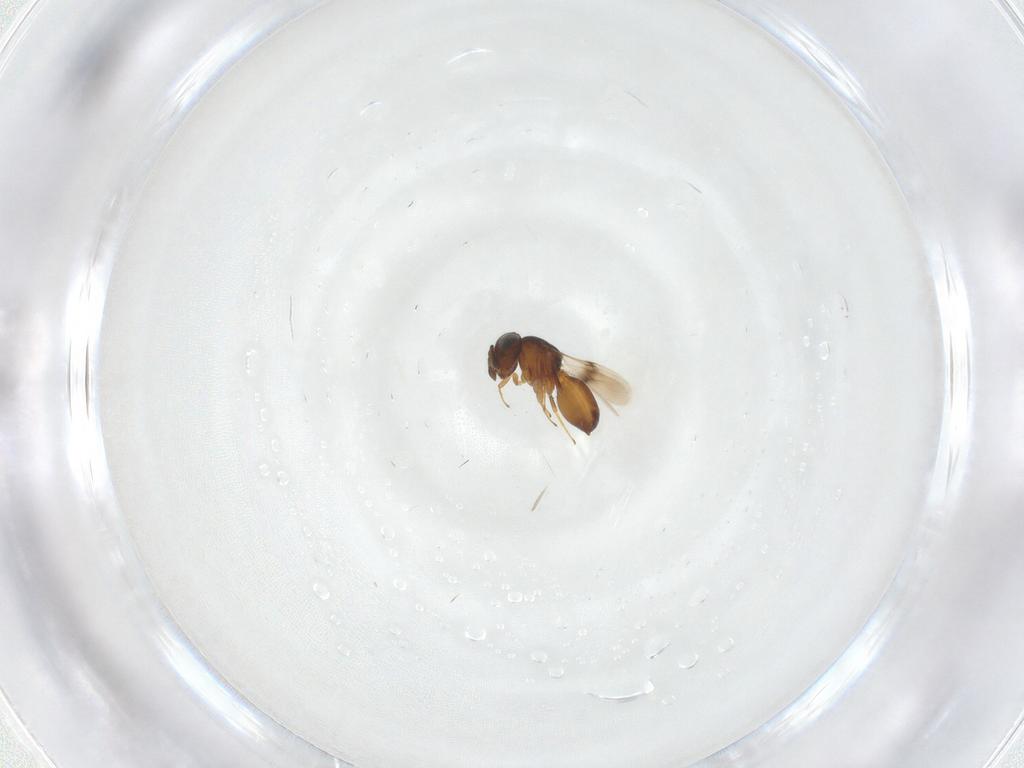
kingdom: Animalia
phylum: Arthropoda
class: Insecta
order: Hymenoptera
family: Scelionidae
